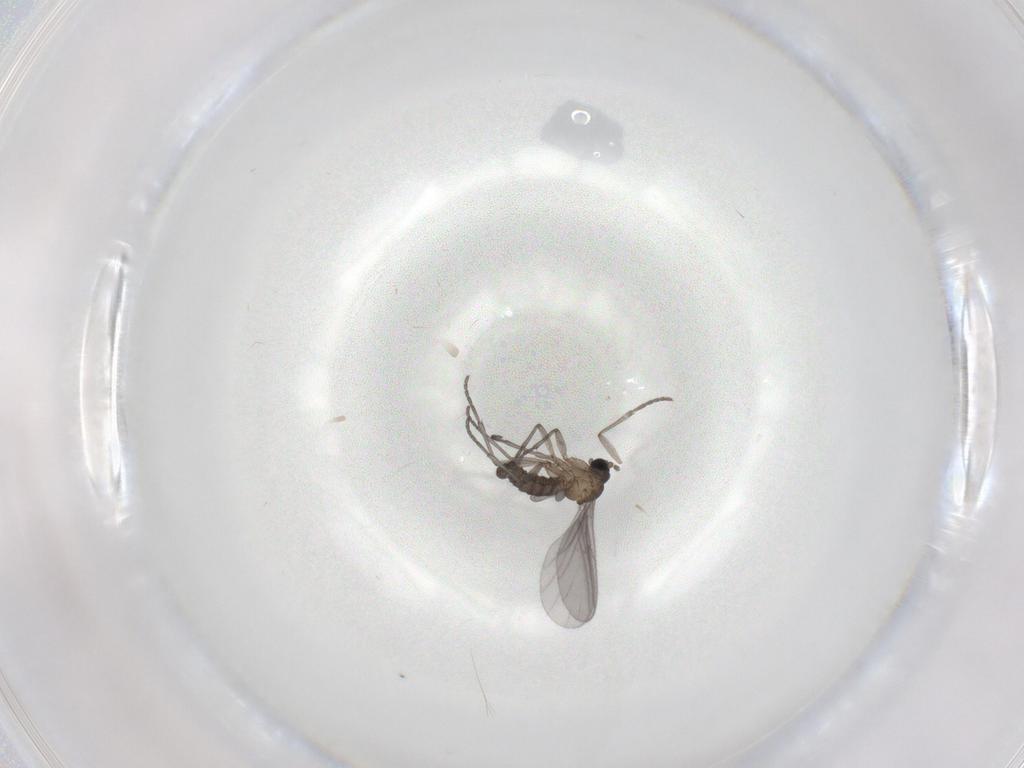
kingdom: Animalia
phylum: Arthropoda
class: Insecta
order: Diptera
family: Sciaridae
